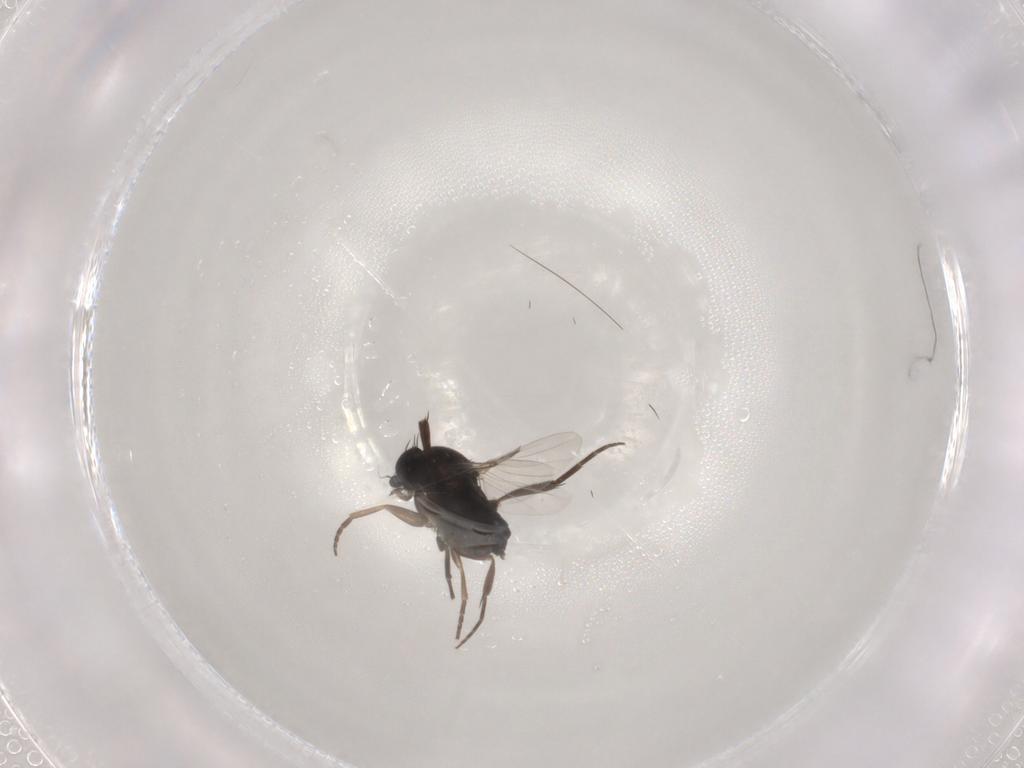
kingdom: Animalia
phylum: Arthropoda
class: Insecta
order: Diptera
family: Phoridae
